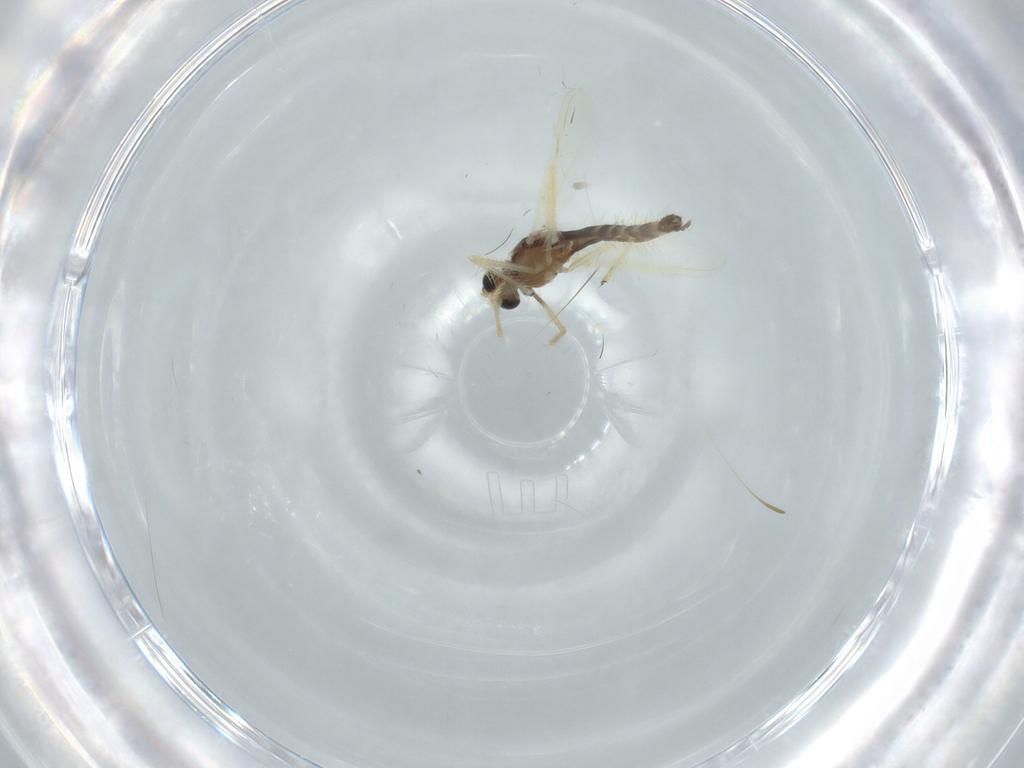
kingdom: Animalia
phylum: Arthropoda
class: Insecta
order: Diptera
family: Chironomidae
